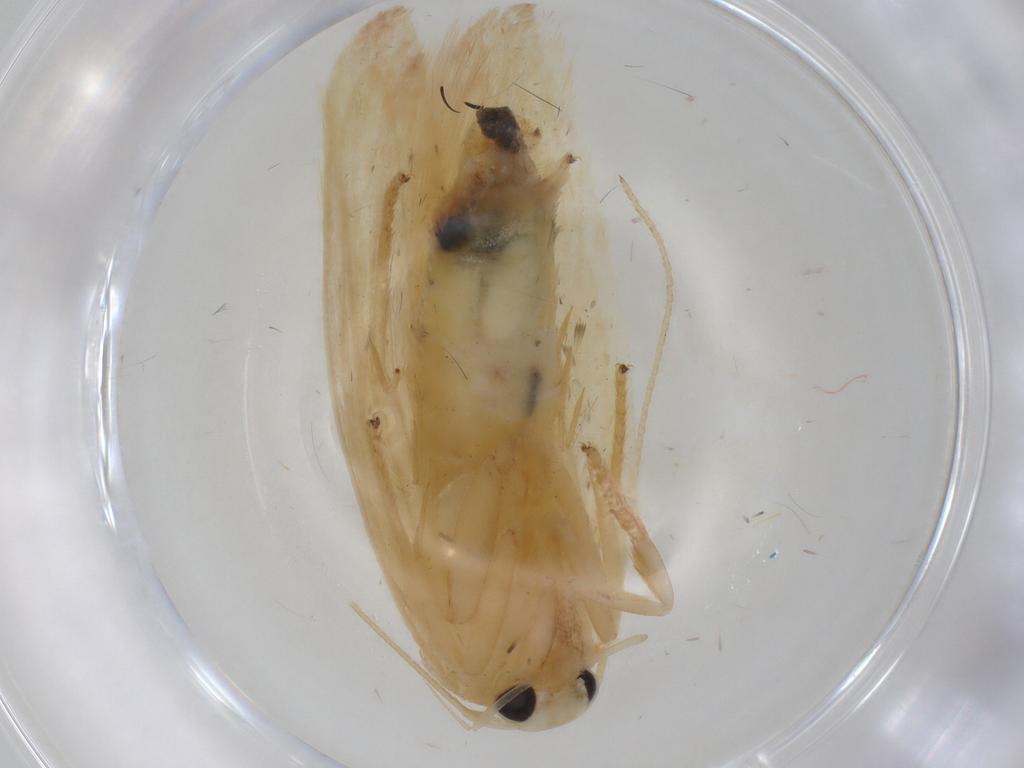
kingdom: Animalia
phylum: Arthropoda
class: Insecta
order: Lepidoptera
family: Erebidae
